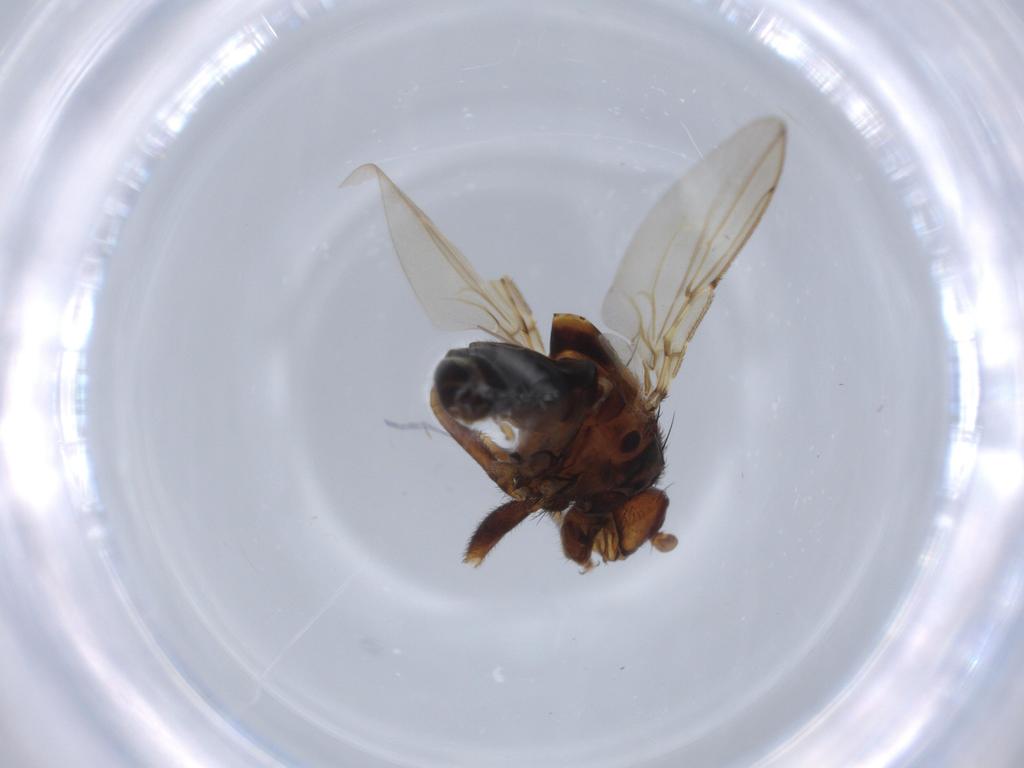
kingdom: Animalia
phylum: Arthropoda
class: Insecta
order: Diptera
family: Sphaeroceridae
